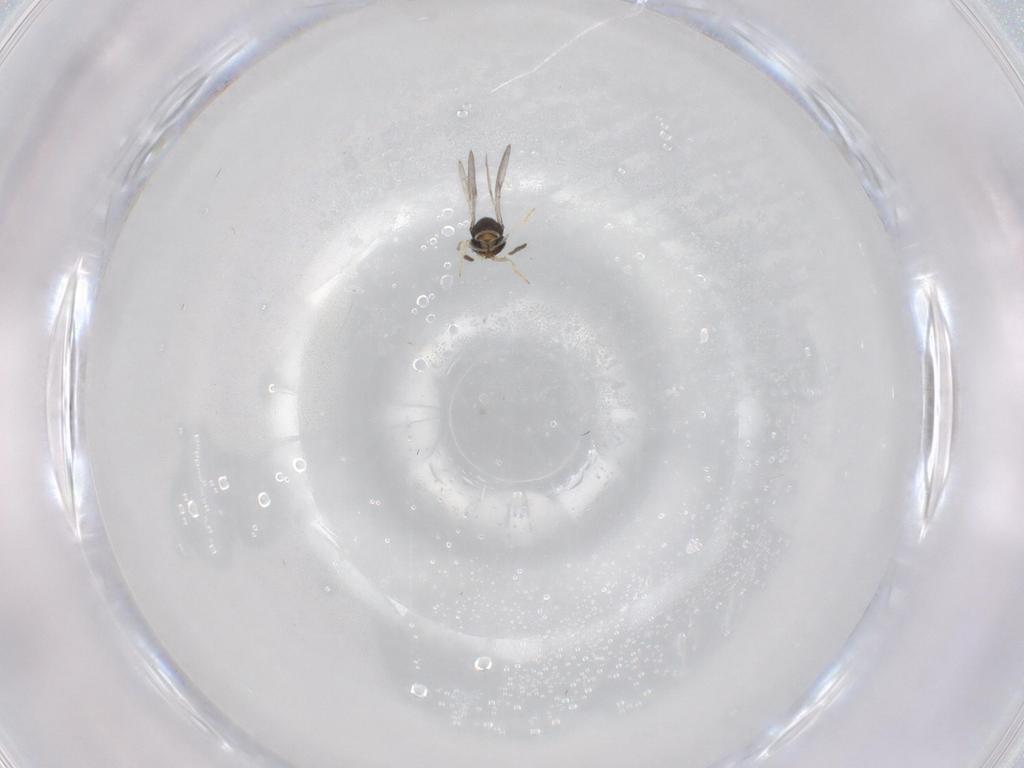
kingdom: Animalia
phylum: Arthropoda
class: Insecta
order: Hymenoptera
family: Scelionidae
